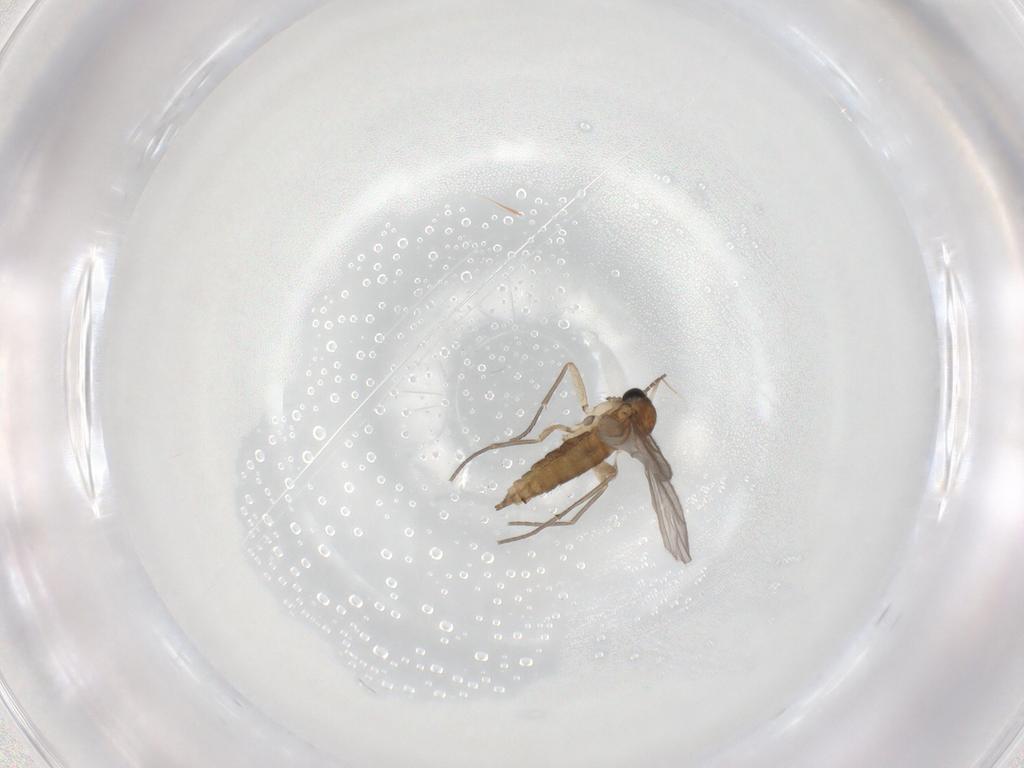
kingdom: Animalia
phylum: Arthropoda
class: Insecta
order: Diptera
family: Sciaridae
